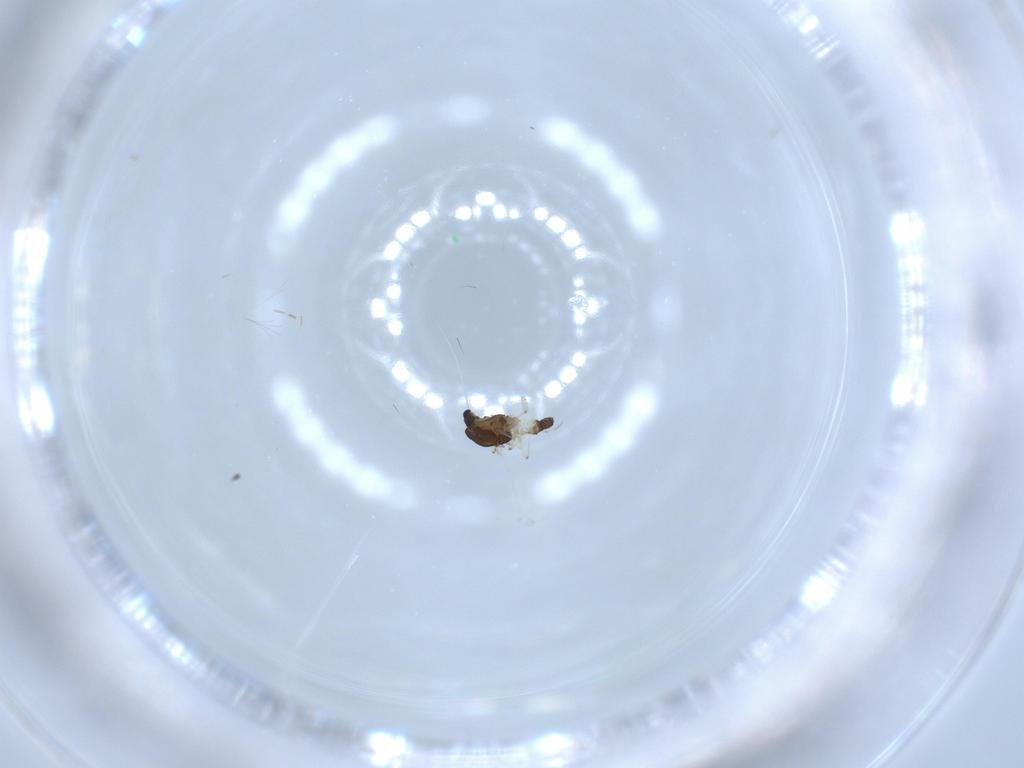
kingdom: Animalia
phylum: Arthropoda
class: Insecta
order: Diptera
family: Chironomidae
